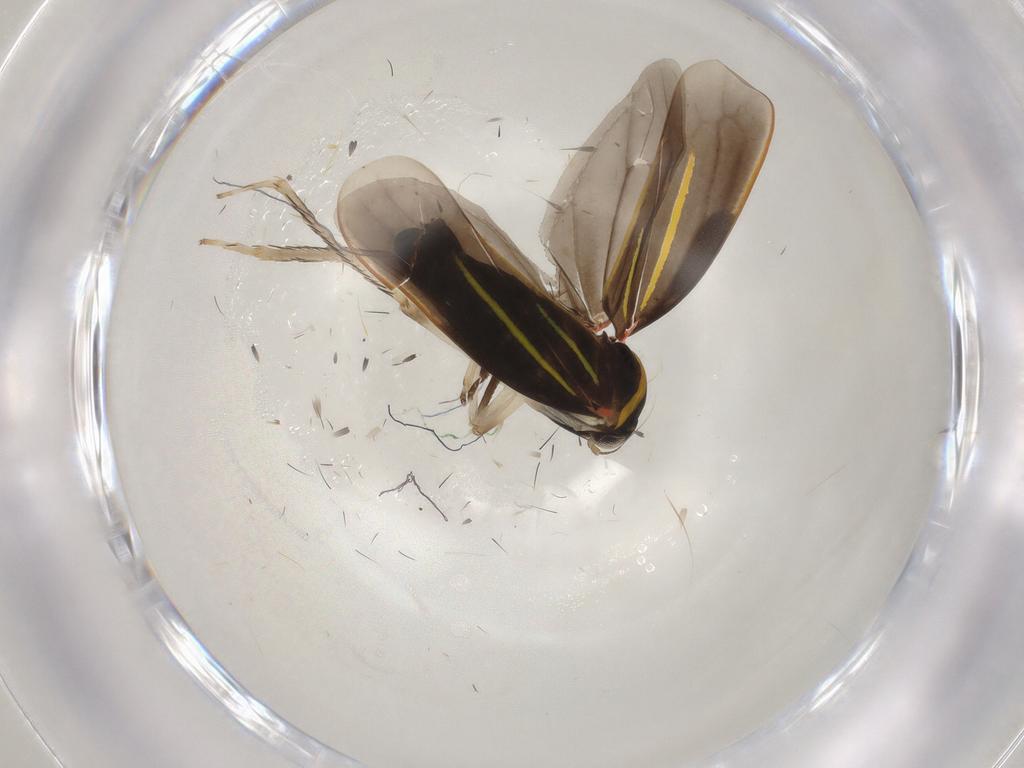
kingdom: Animalia
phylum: Arthropoda
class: Insecta
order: Hemiptera
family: Cicadellidae
